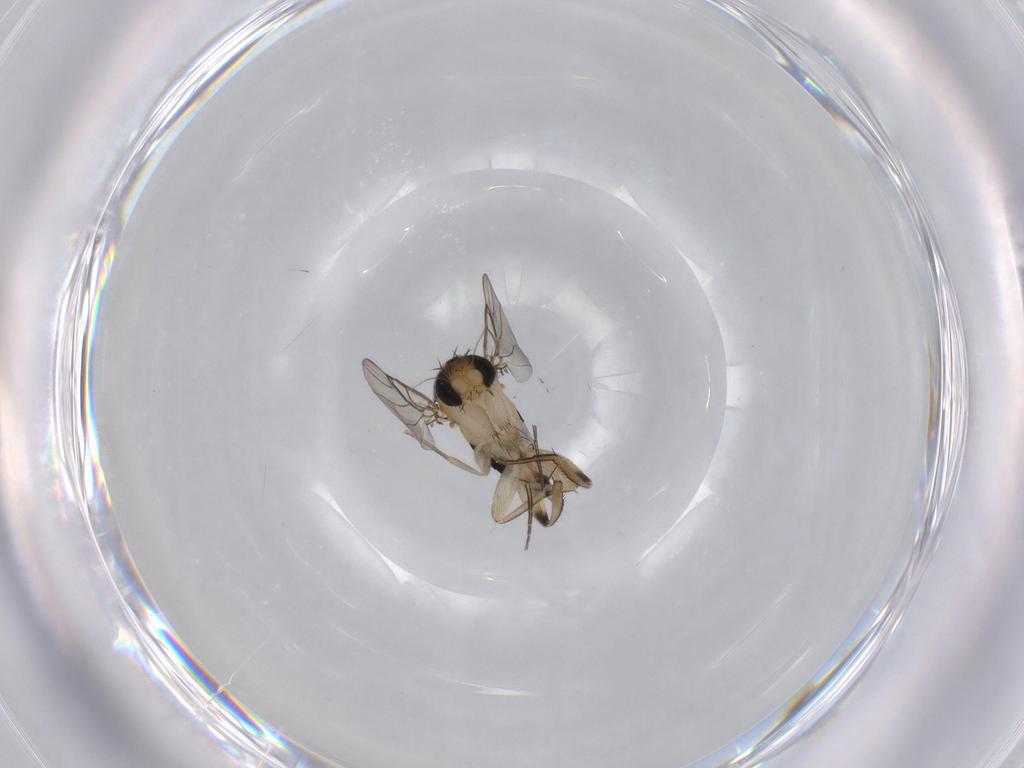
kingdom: Animalia
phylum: Arthropoda
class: Insecta
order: Diptera
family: Phoridae
